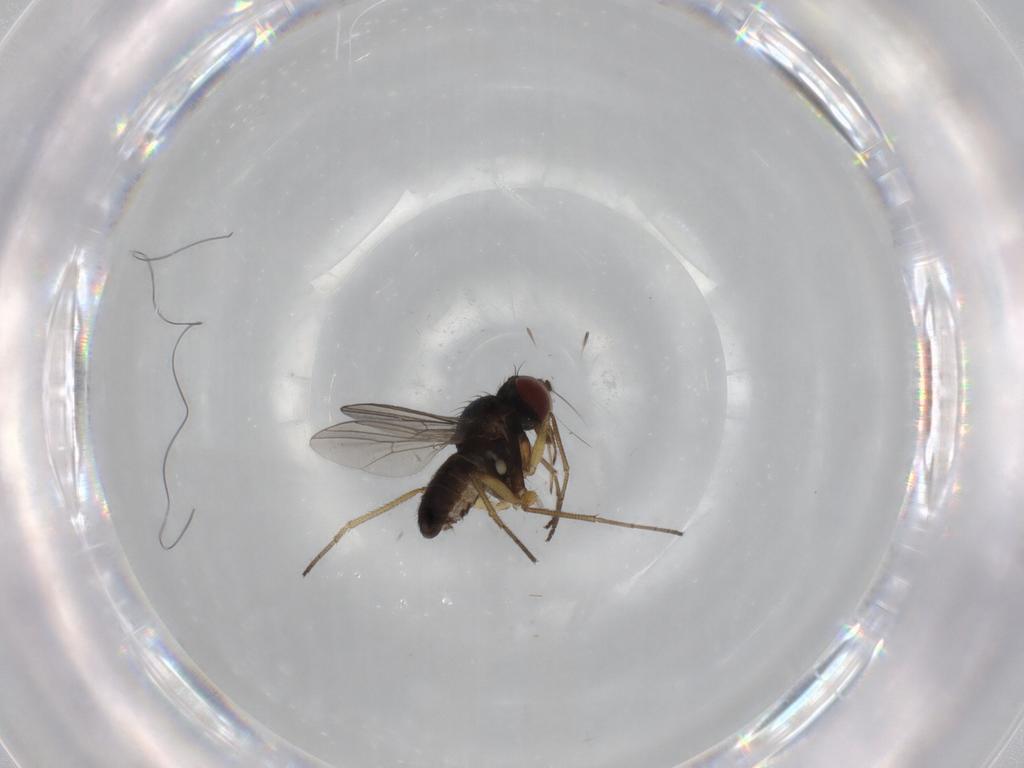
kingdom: Animalia
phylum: Arthropoda
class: Insecta
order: Diptera
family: Dolichopodidae
